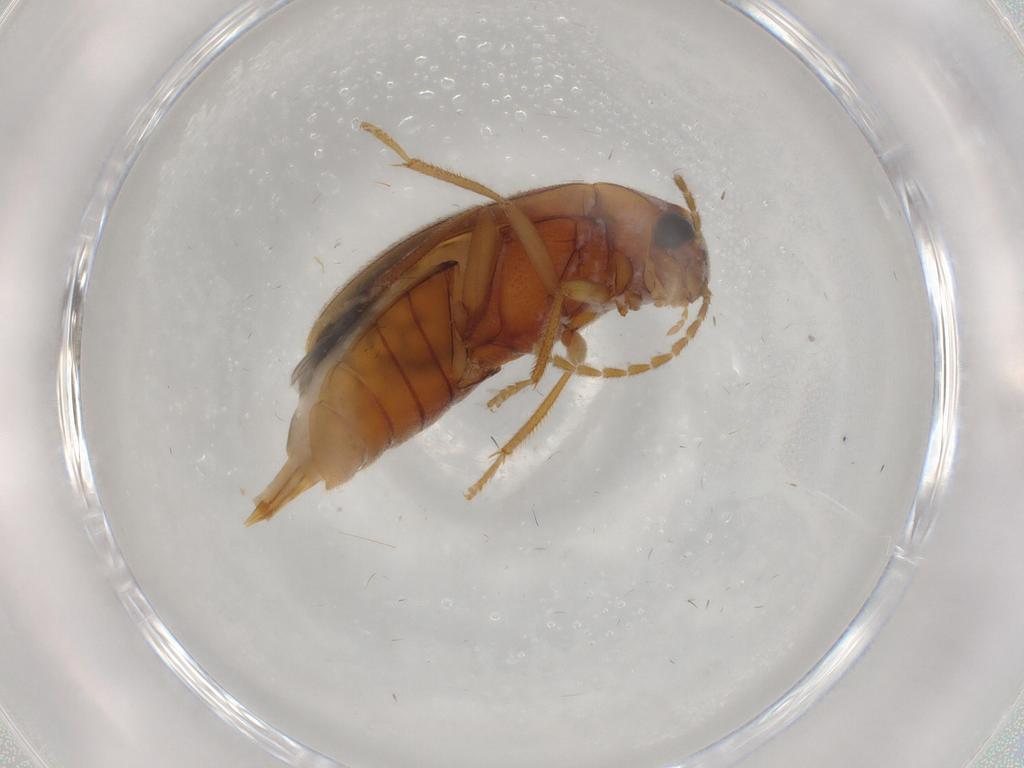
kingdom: Animalia
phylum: Arthropoda
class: Insecta
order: Coleoptera
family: Ptilodactylidae
